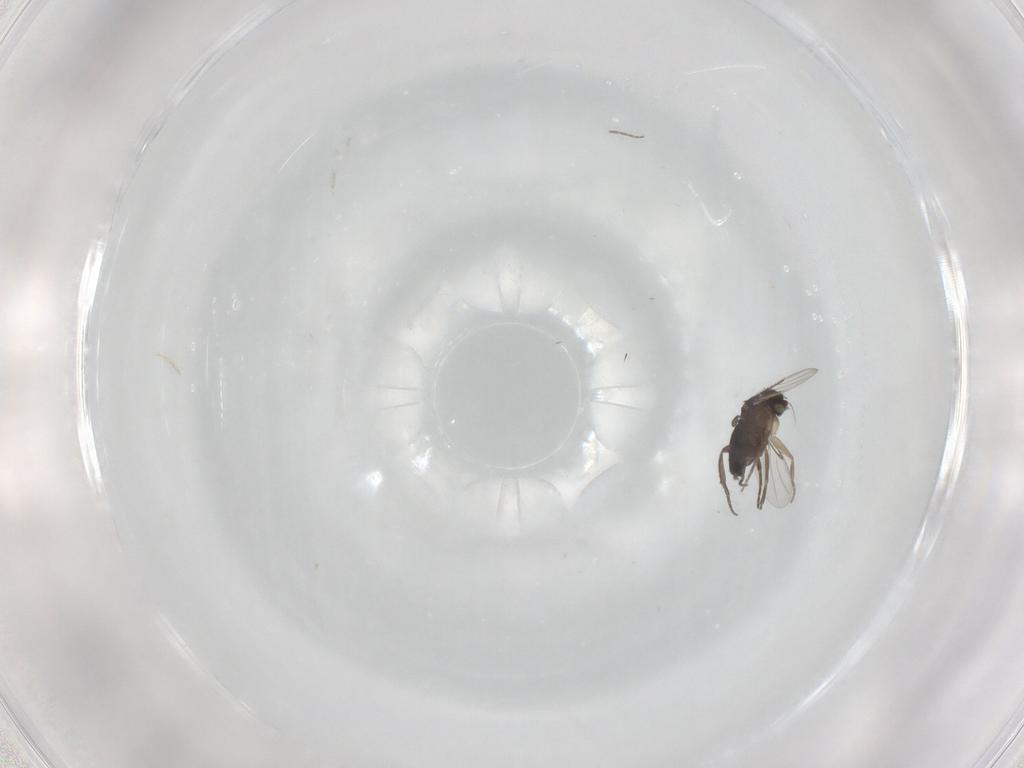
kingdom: Animalia
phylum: Arthropoda
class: Insecta
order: Diptera
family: Phoridae
